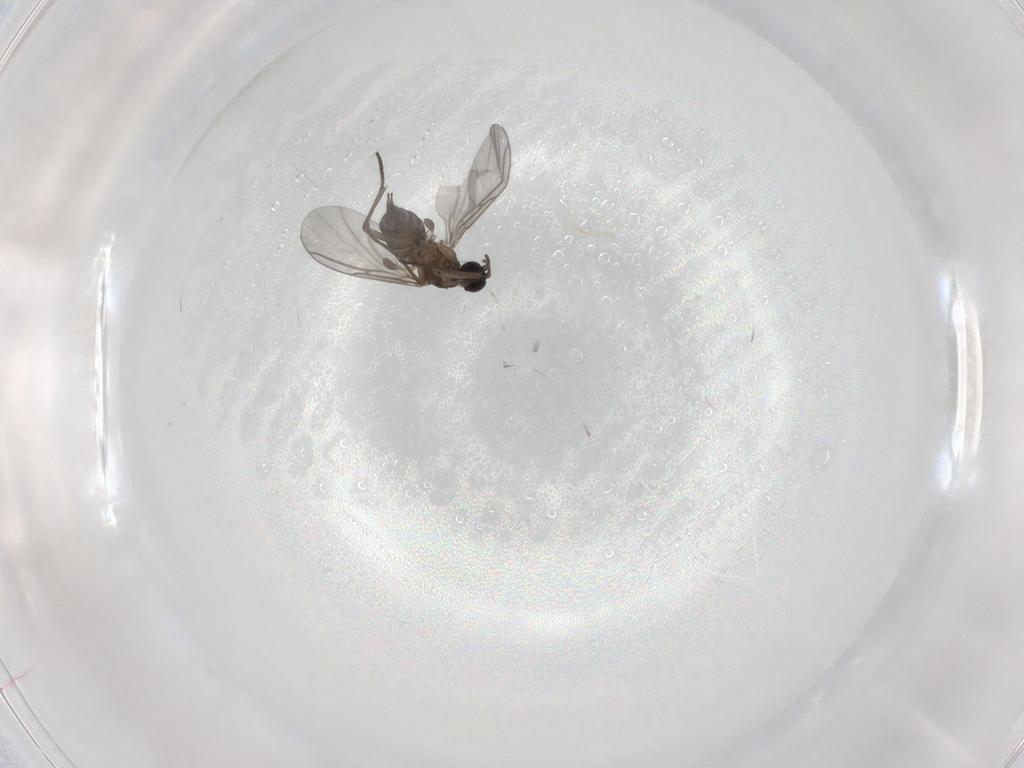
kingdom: Animalia
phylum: Arthropoda
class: Insecta
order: Diptera
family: Sciaridae
